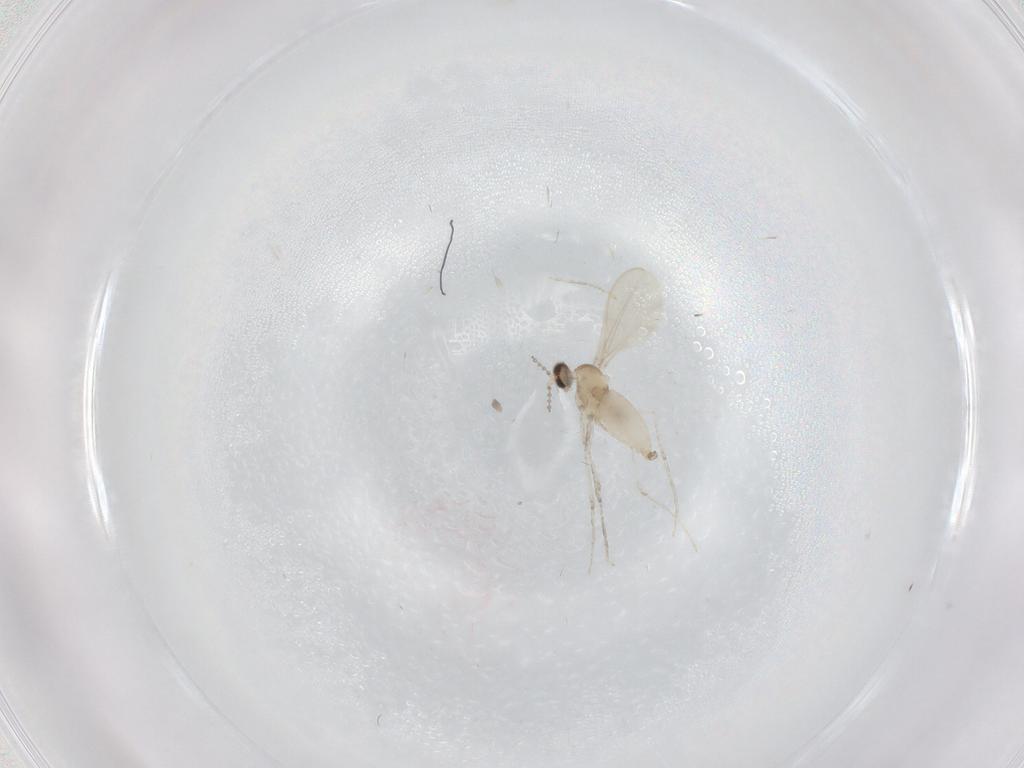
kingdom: Animalia
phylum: Arthropoda
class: Insecta
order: Diptera
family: Cecidomyiidae
